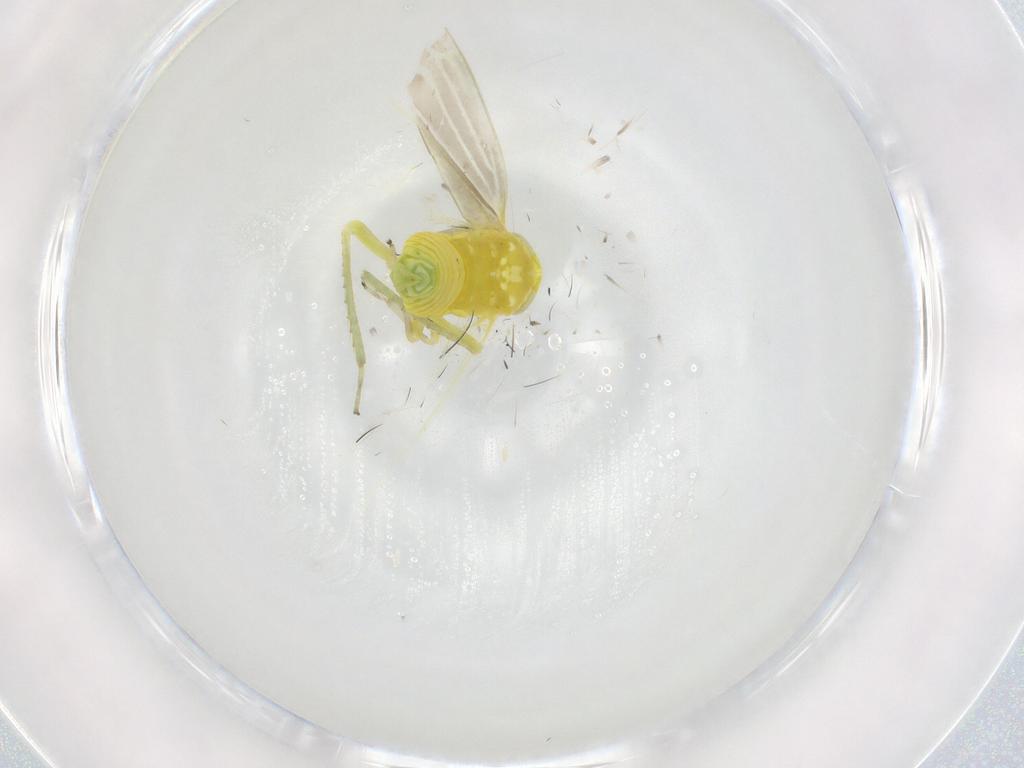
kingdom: Animalia
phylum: Arthropoda
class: Insecta
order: Hemiptera
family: Cicadellidae
